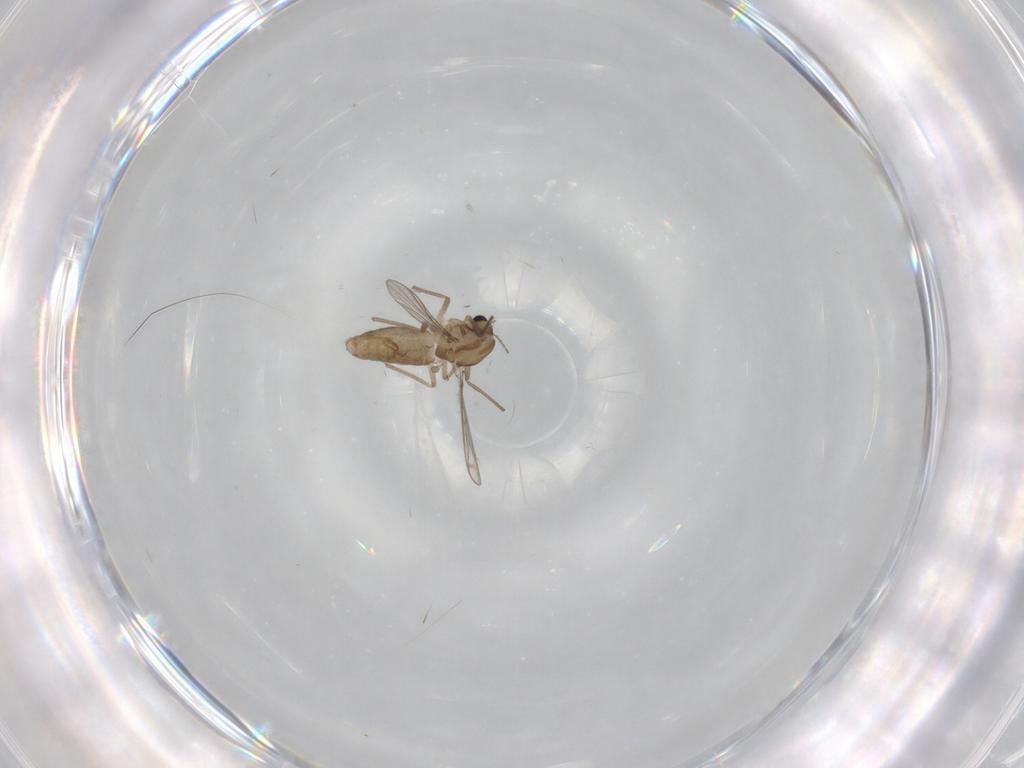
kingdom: Animalia
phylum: Arthropoda
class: Insecta
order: Diptera
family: Chironomidae
